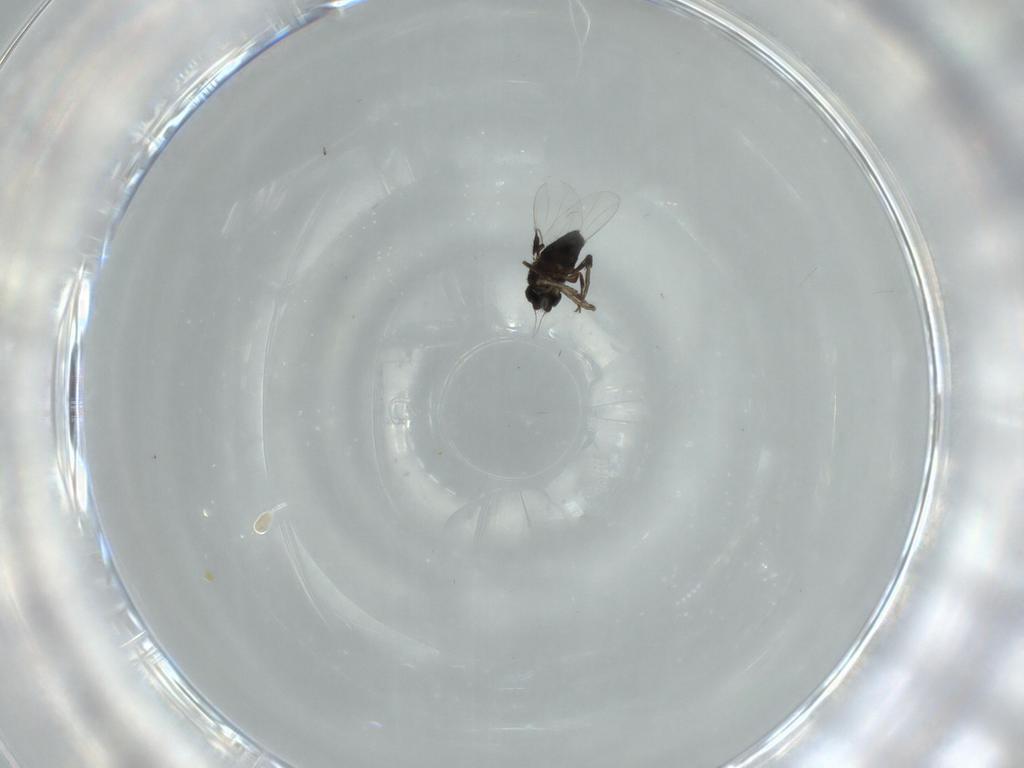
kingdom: Animalia
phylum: Arthropoda
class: Insecta
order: Diptera
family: Phoridae
